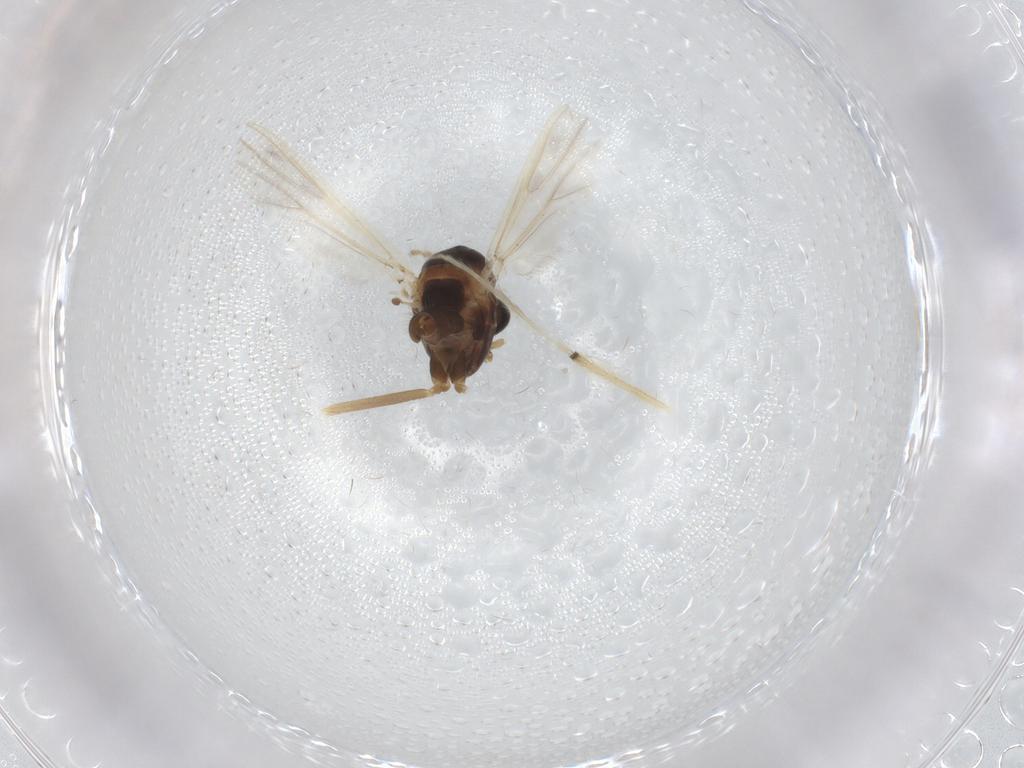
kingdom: Animalia
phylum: Arthropoda
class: Insecta
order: Diptera
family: Chironomidae
